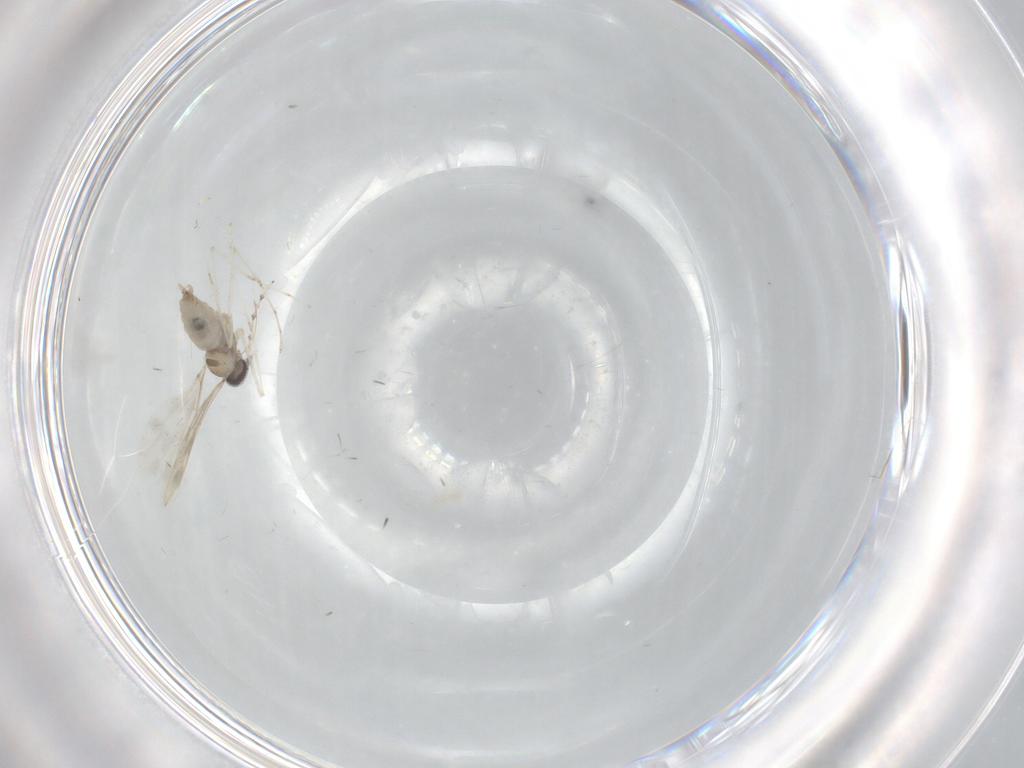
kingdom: Animalia
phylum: Arthropoda
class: Insecta
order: Diptera
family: Cecidomyiidae
